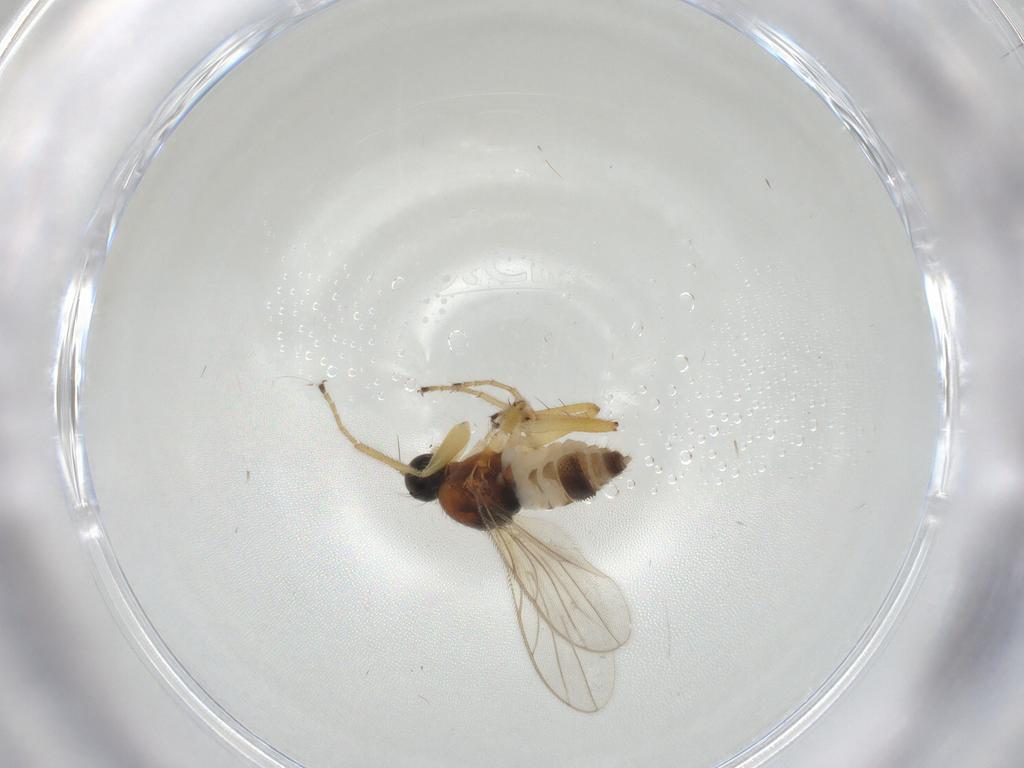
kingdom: Animalia
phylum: Arthropoda
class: Insecta
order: Diptera
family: Hybotidae
